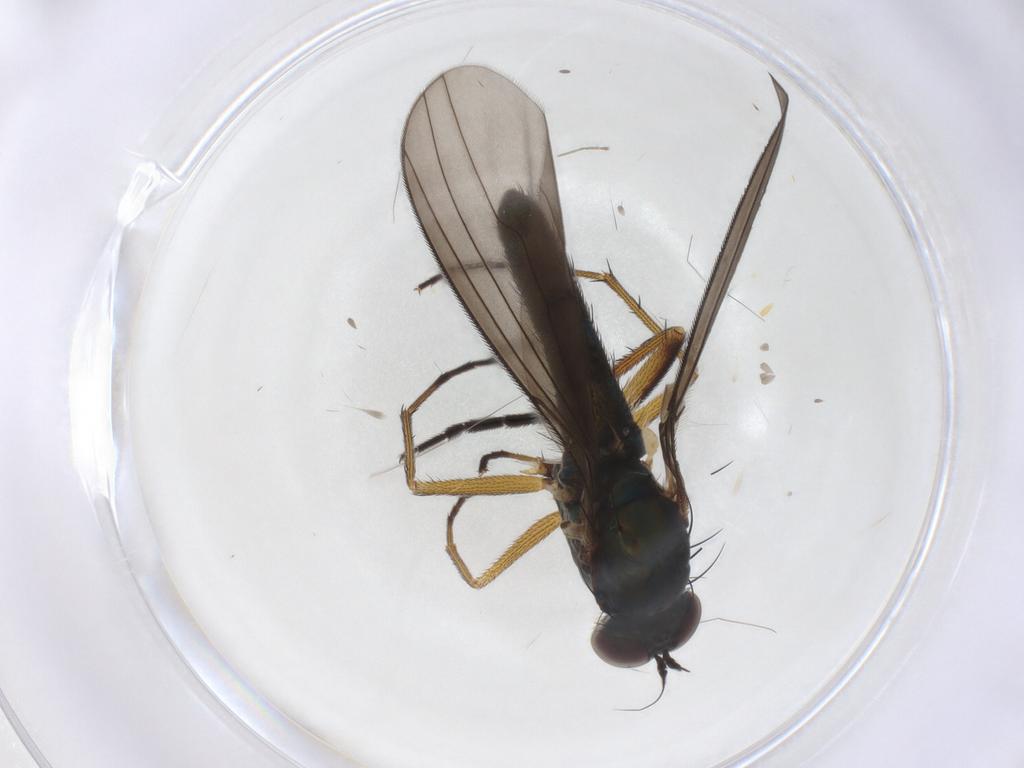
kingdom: Animalia
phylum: Arthropoda
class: Insecta
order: Diptera
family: Dolichopodidae
